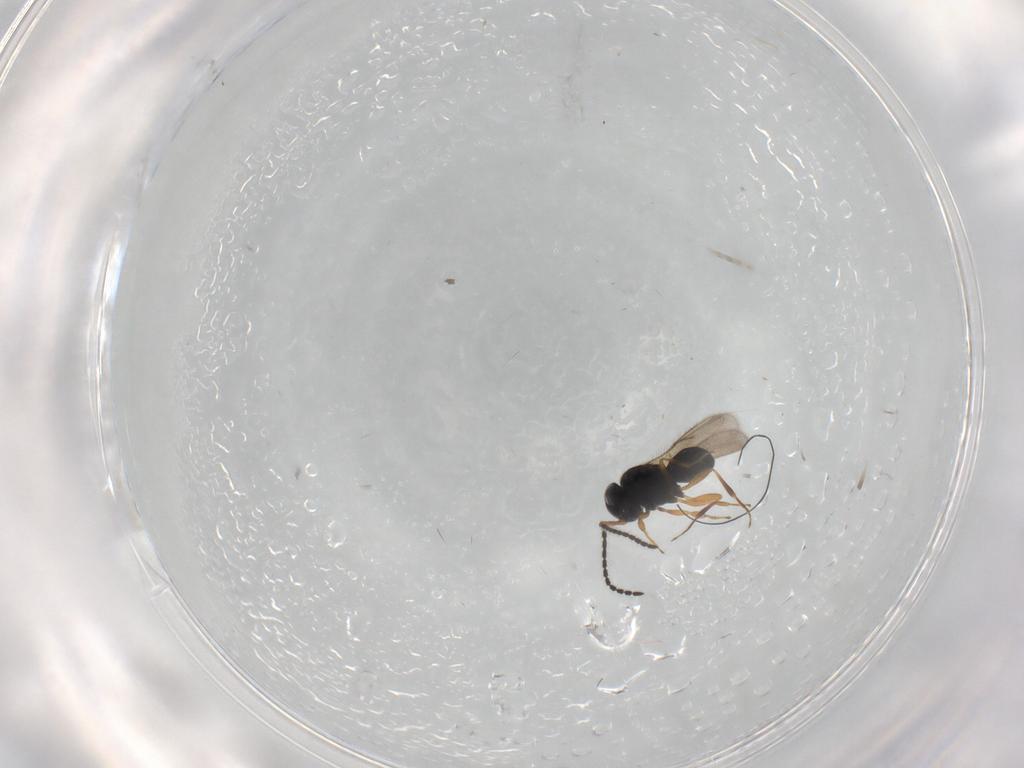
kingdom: Animalia
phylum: Arthropoda
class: Insecta
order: Hymenoptera
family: Scelionidae
